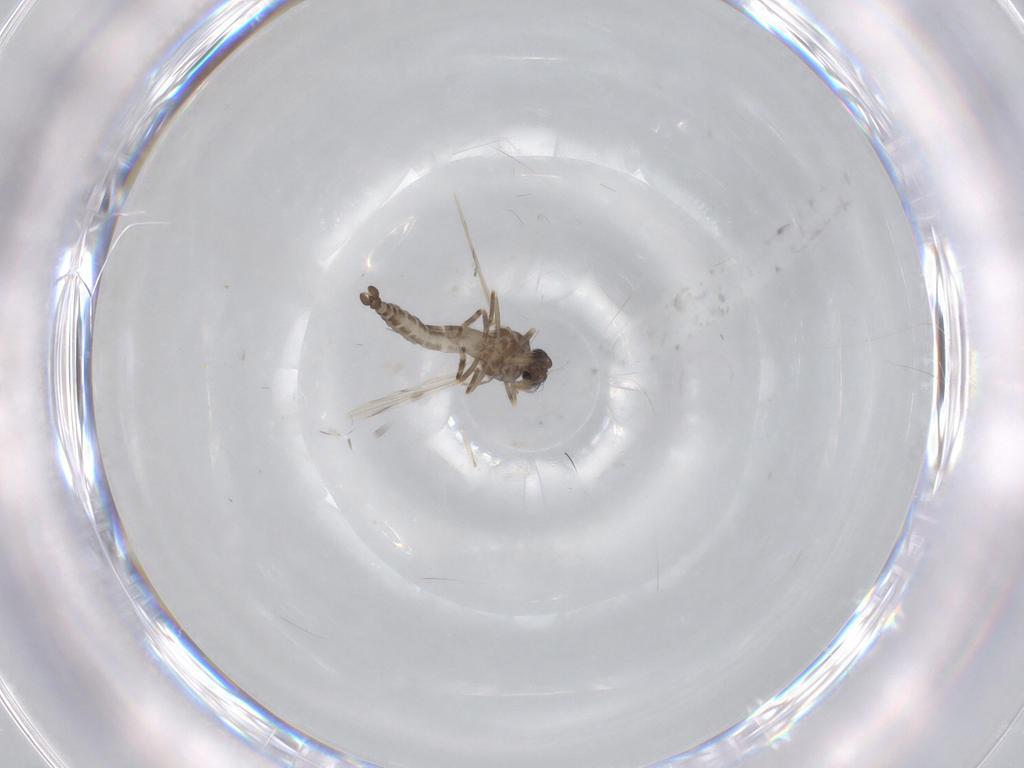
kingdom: Animalia
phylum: Arthropoda
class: Insecta
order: Diptera
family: Ceratopogonidae
